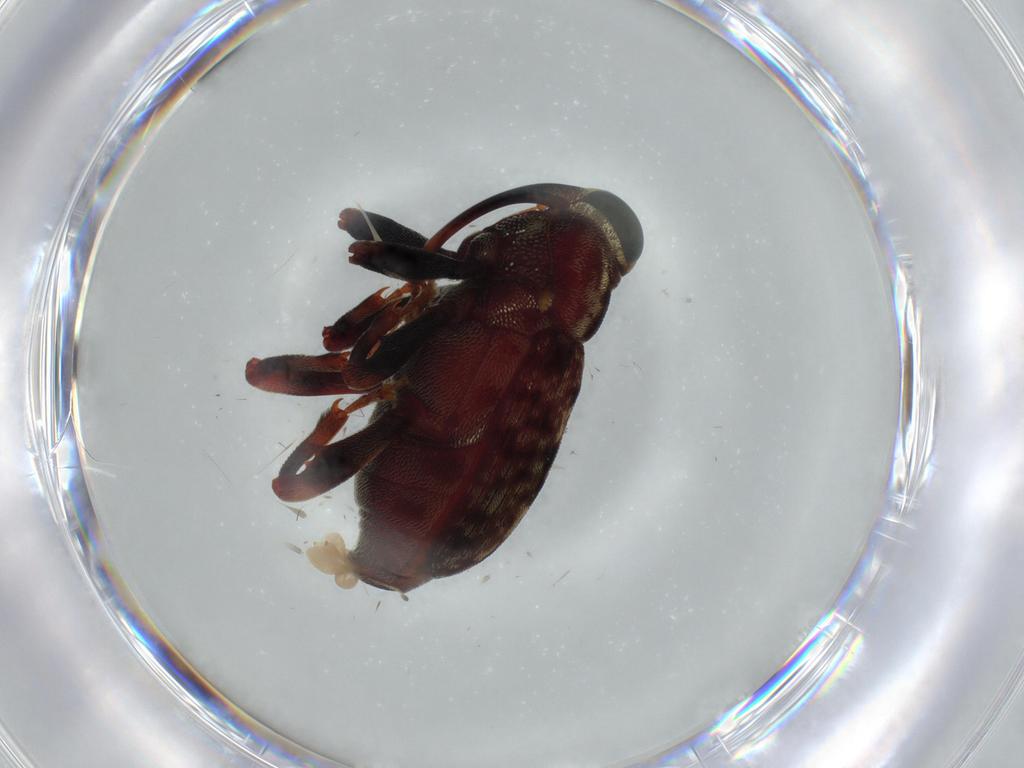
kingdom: Animalia
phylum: Arthropoda
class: Insecta
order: Coleoptera
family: Curculionidae
